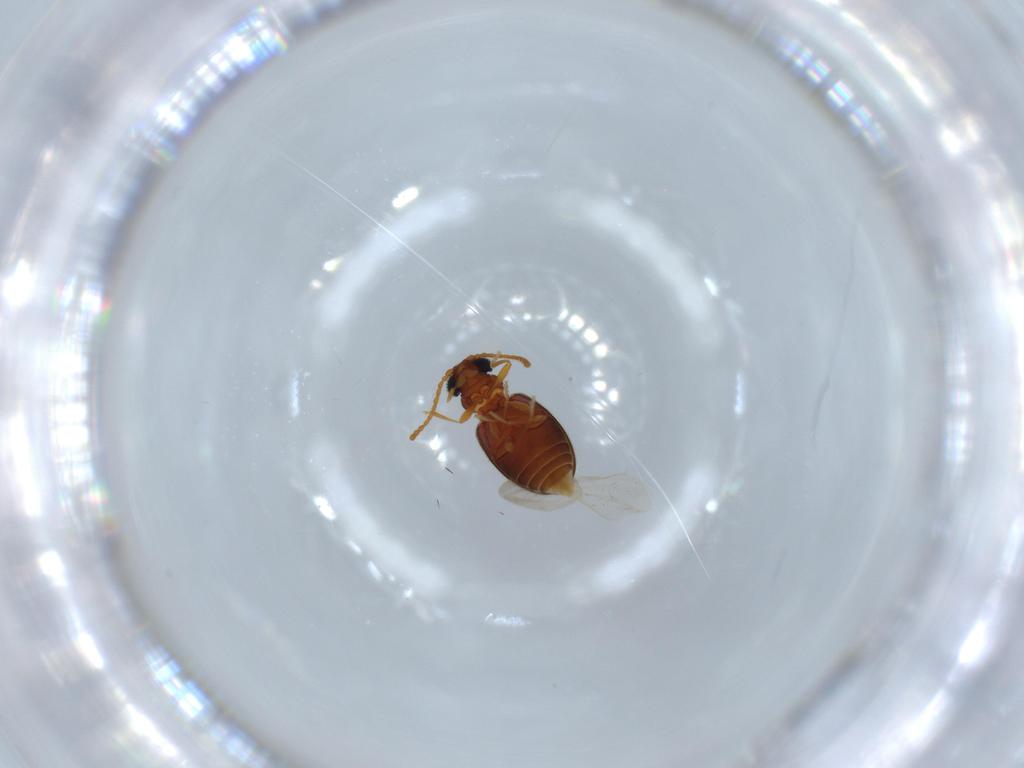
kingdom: Animalia
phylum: Arthropoda
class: Insecta
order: Coleoptera
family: Aderidae
